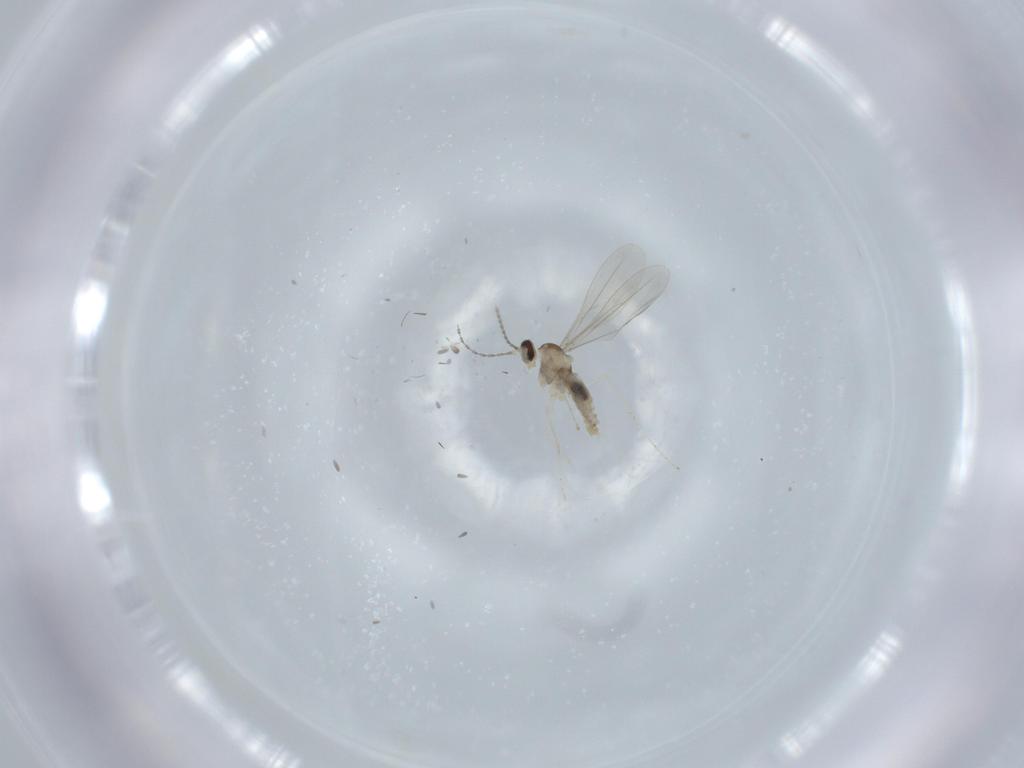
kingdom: Animalia
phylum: Arthropoda
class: Insecta
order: Diptera
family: Cecidomyiidae
